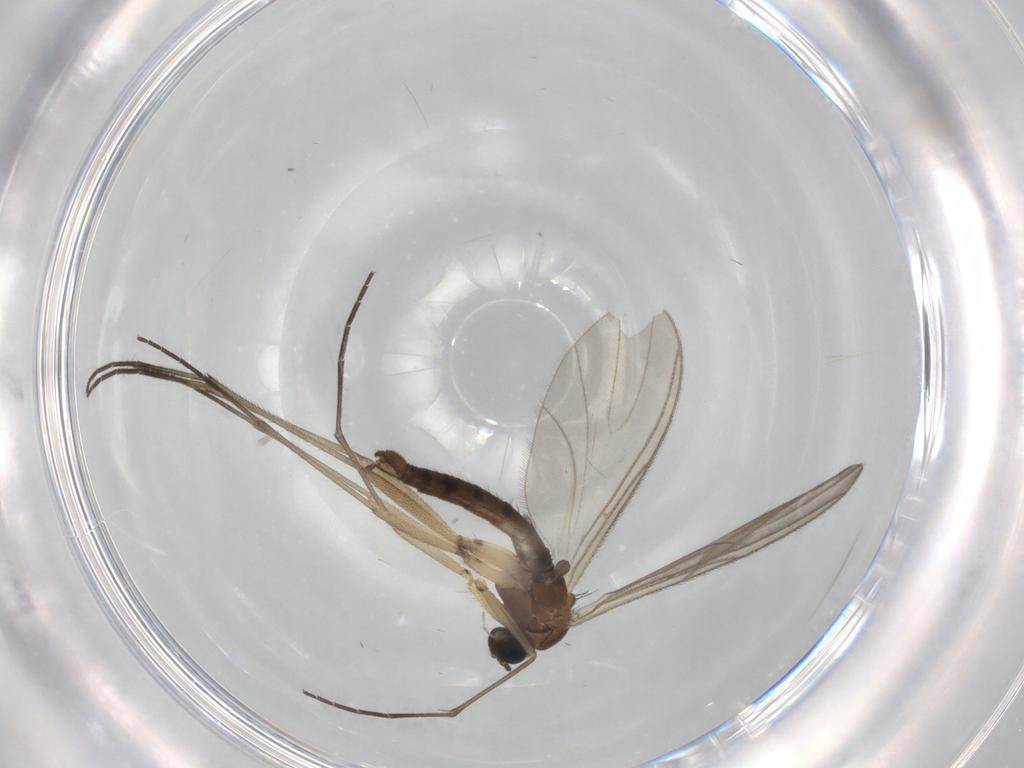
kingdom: Animalia
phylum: Arthropoda
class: Insecta
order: Diptera
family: Sciaridae
